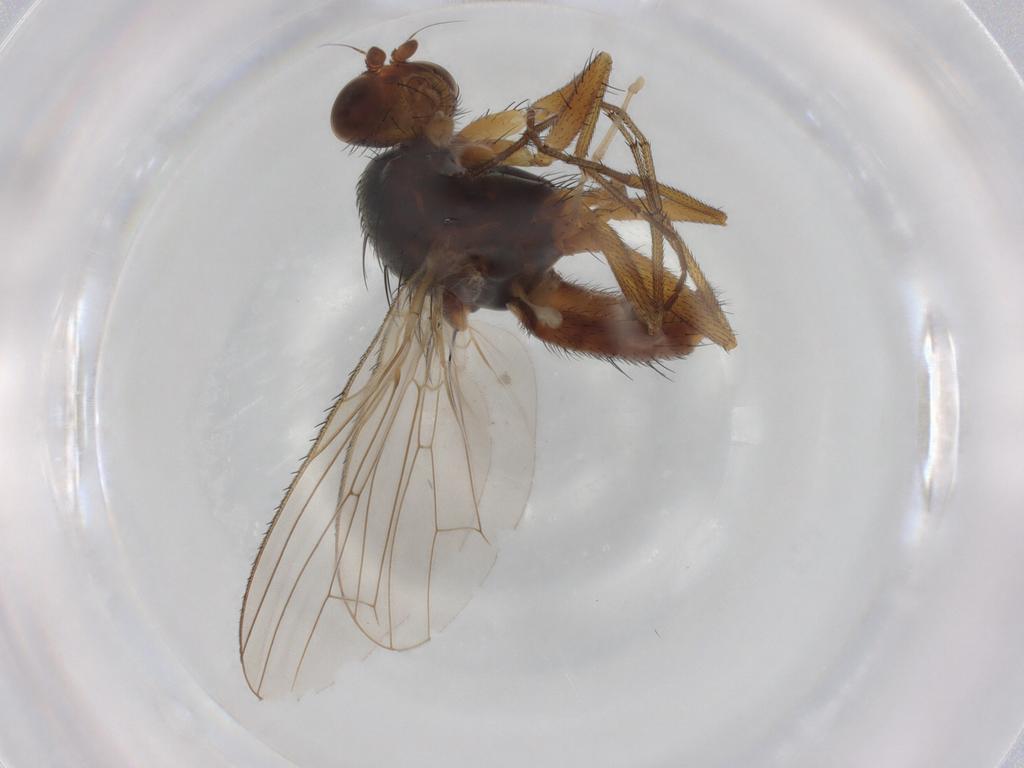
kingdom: Animalia
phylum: Arthropoda
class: Insecta
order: Diptera
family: Heleomyzidae
